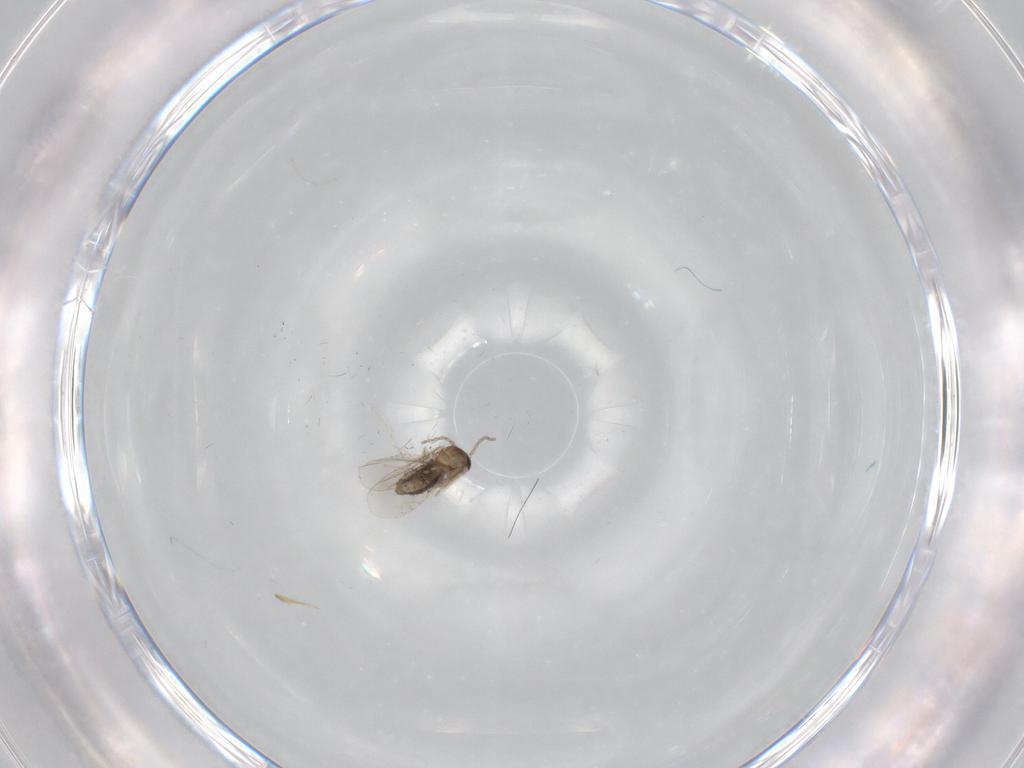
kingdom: Animalia
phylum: Arthropoda
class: Insecta
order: Diptera
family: Cecidomyiidae
